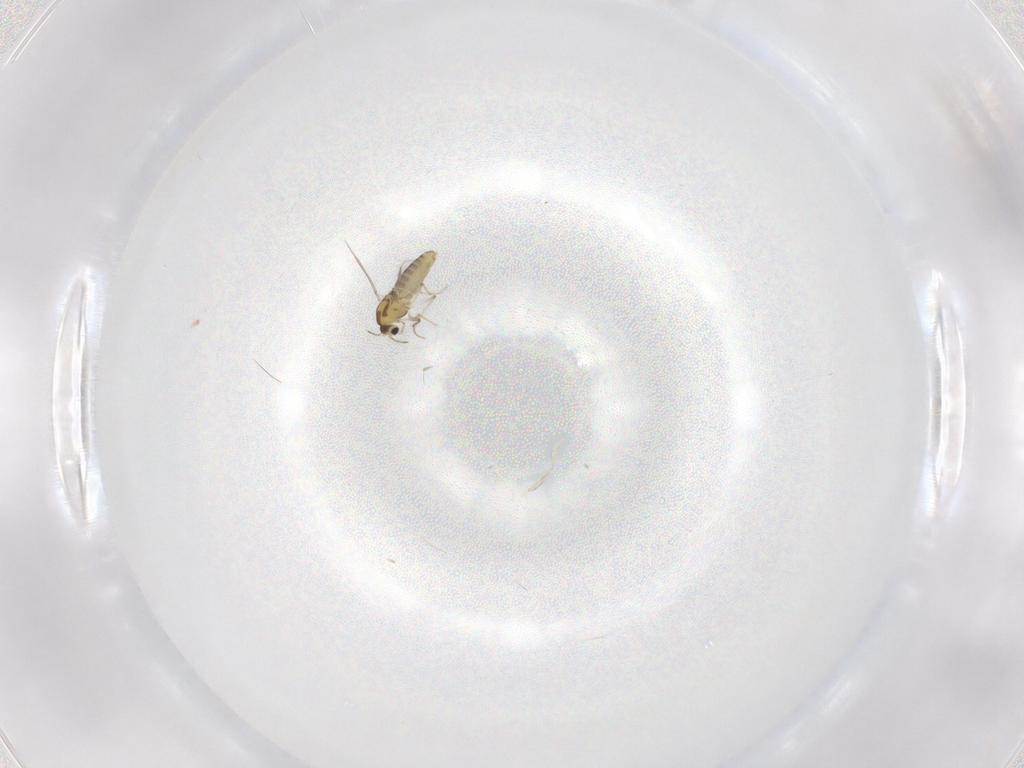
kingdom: Animalia
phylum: Arthropoda
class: Insecta
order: Diptera
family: Chironomidae
